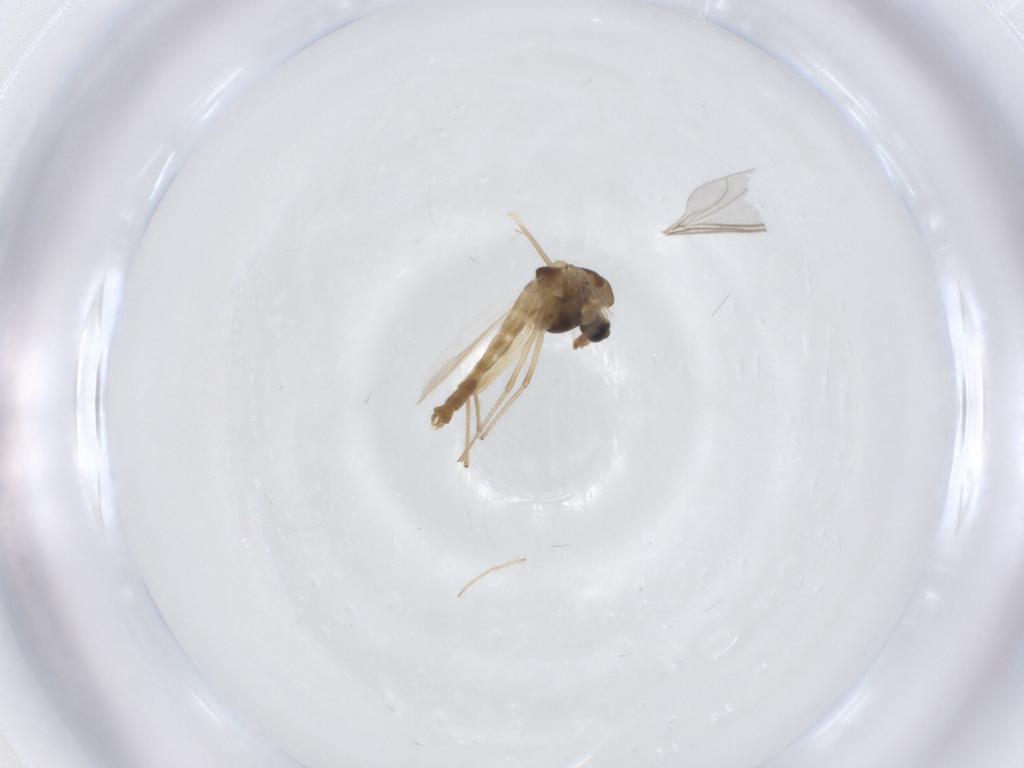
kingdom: Animalia
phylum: Arthropoda
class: Insecta
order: Diptera
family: Chironomidae
